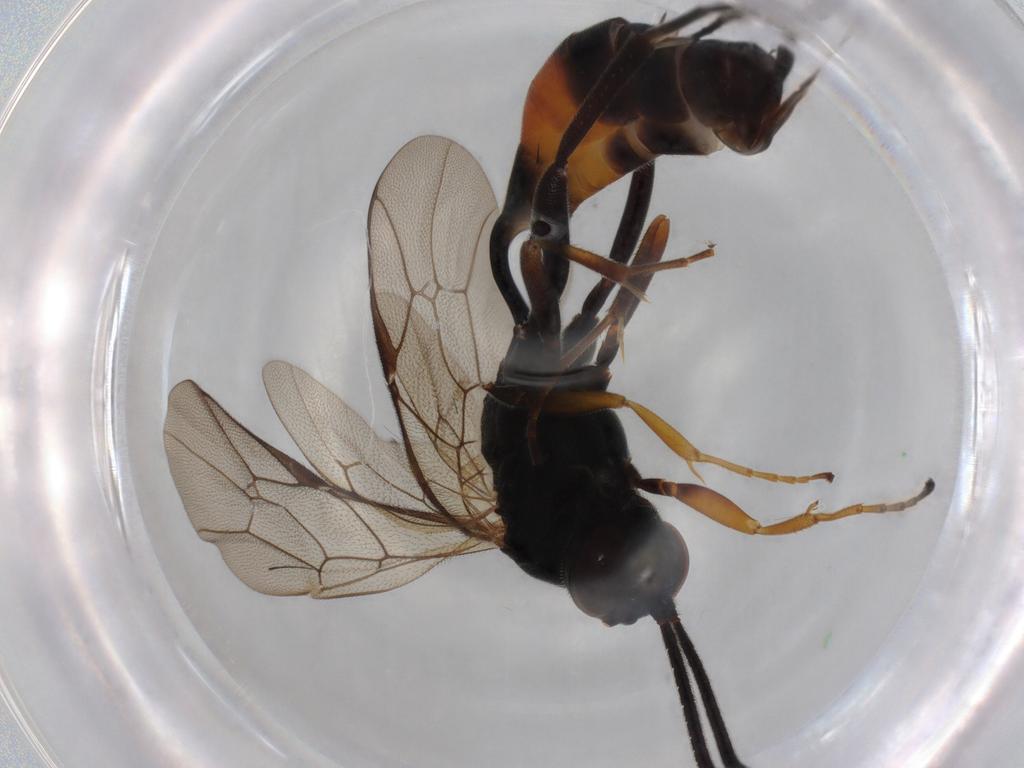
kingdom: Animalia
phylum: Arthropoda
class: Insecta
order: Hymenoptera
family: Ichneumonidae
